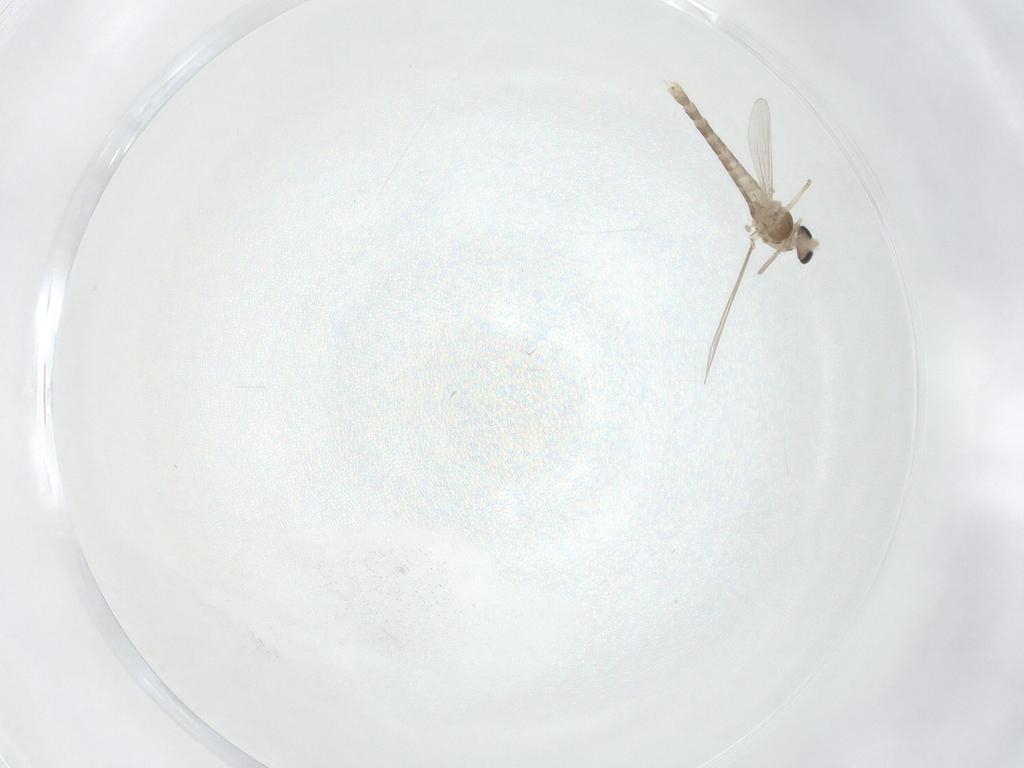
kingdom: Animalia
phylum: Arthropoda
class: Insecta
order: Diptera
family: Chironomidae
